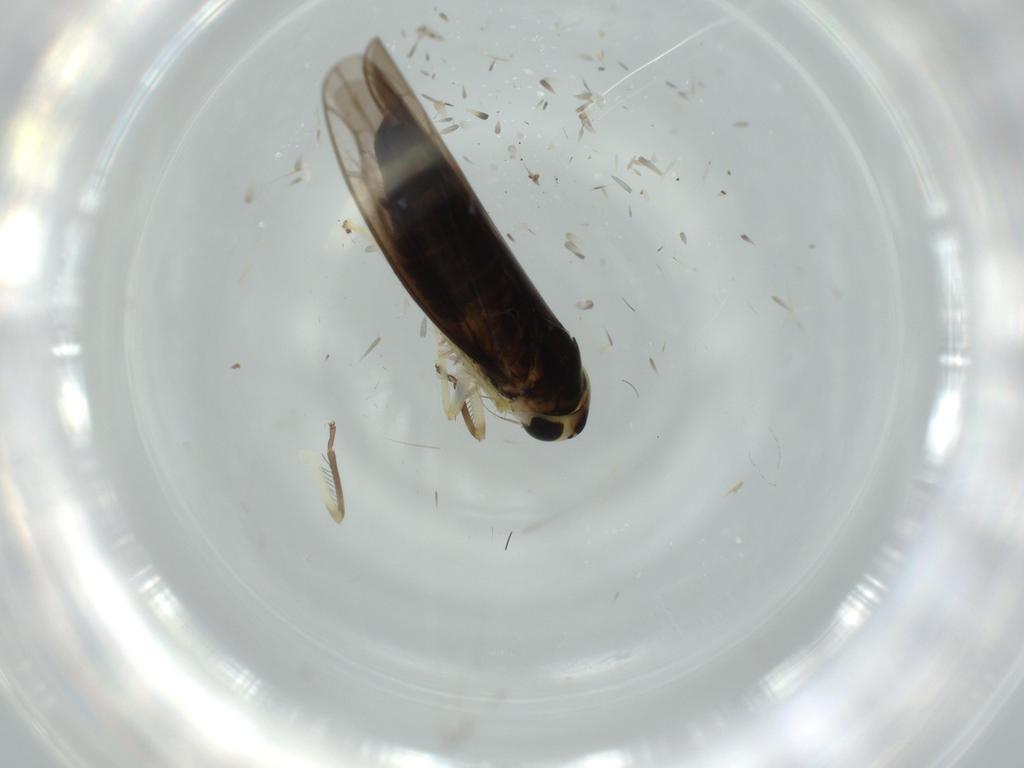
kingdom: Animalia
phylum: Arthropoda
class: Insecta
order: Hemiptera
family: Cicadellidae
